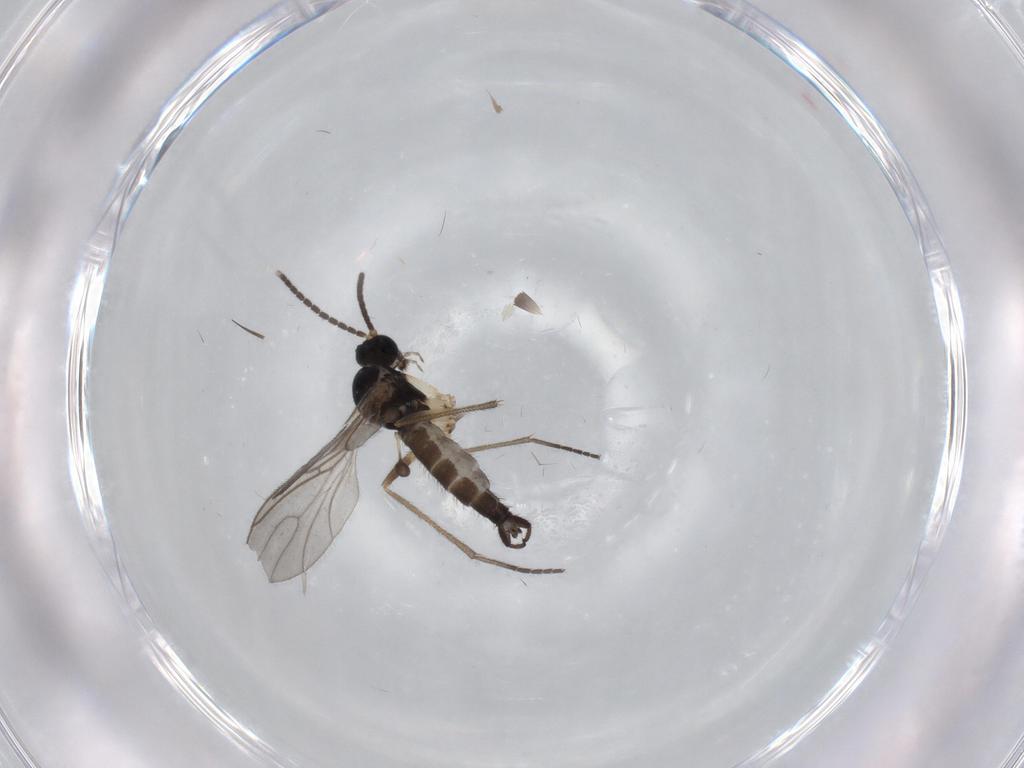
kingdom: Animalia
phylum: Arthropoda
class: Insecta
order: Diptera
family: Sciaridae
